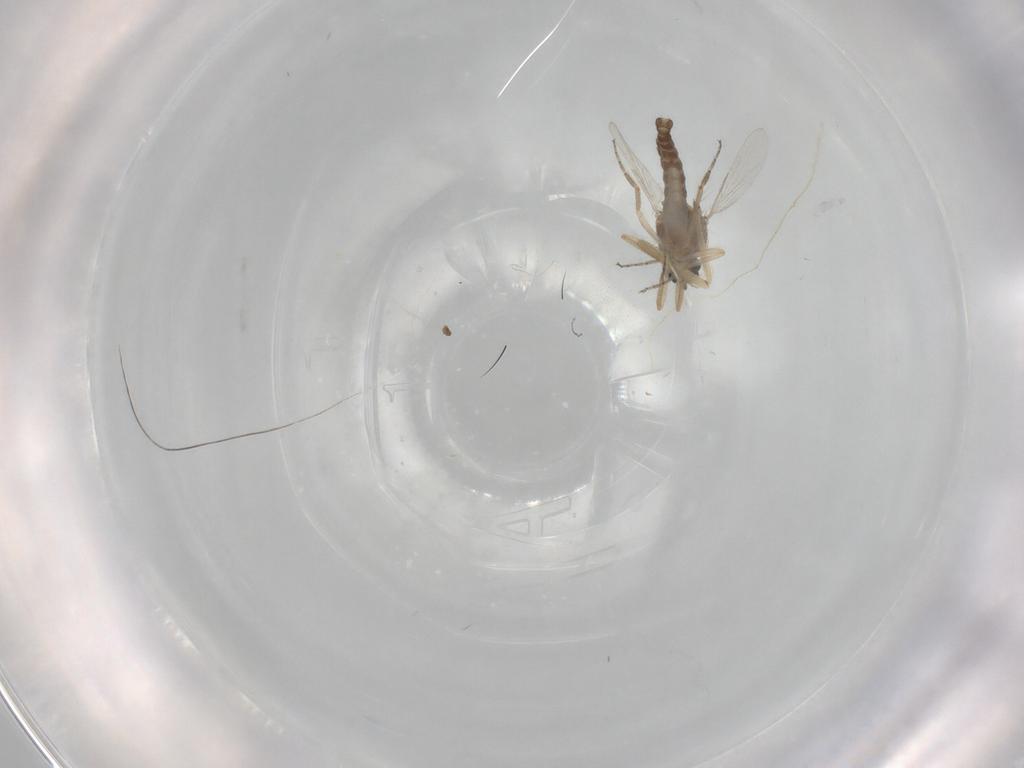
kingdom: Animalia
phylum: Arthropoda
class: Insecta
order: Diptera
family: Ceratopogonidae
